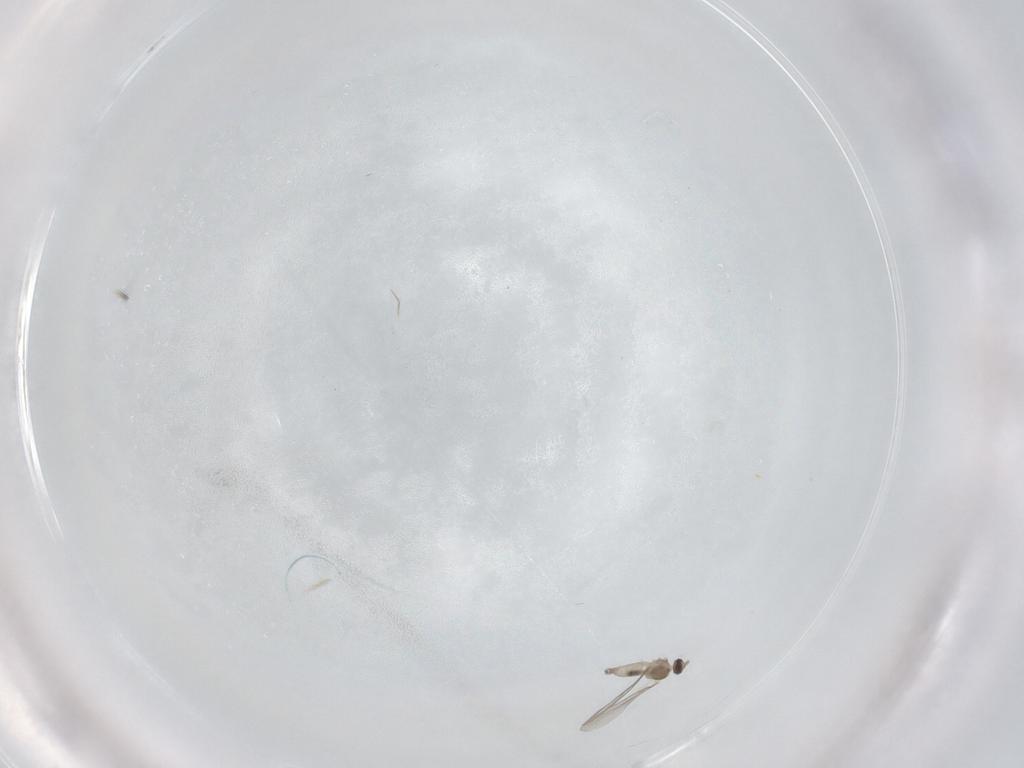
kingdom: Animalia
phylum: Arthropoda
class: Insecta
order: Diptera
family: Cecidomyiidae
